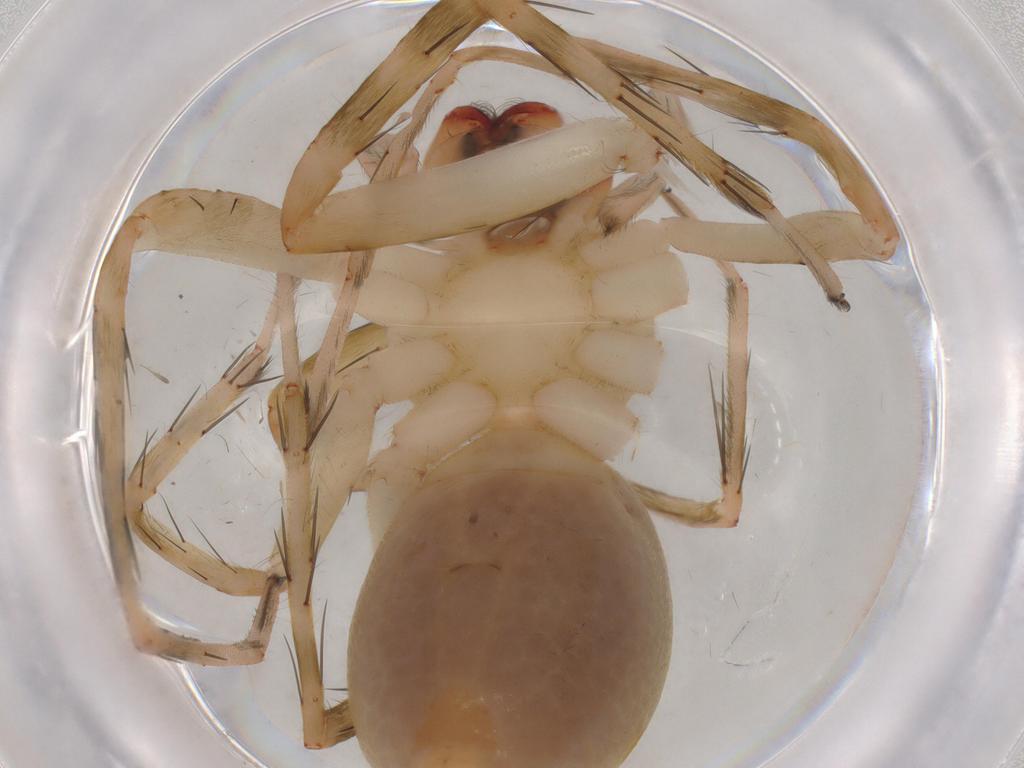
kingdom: Animalia
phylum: Arthropoda
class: Arachnida
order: Araneae
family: Anyphaenidae
